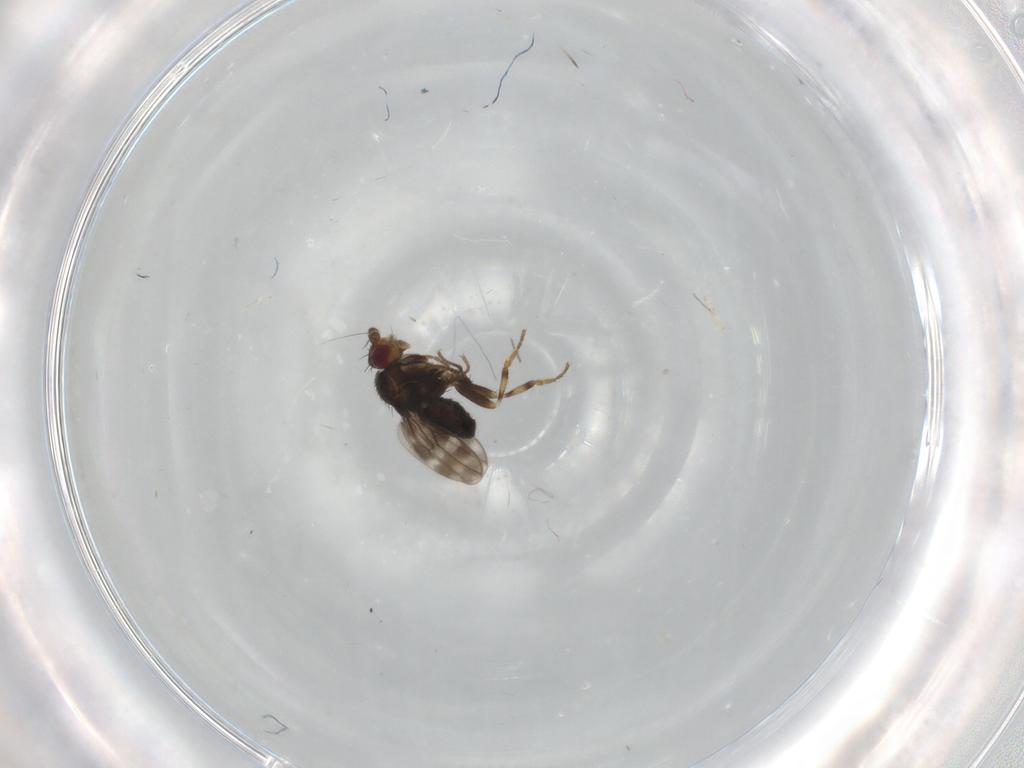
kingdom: Animalia
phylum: Arthropoda
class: Insecta
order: Diptera
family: Sphaeroceridae
